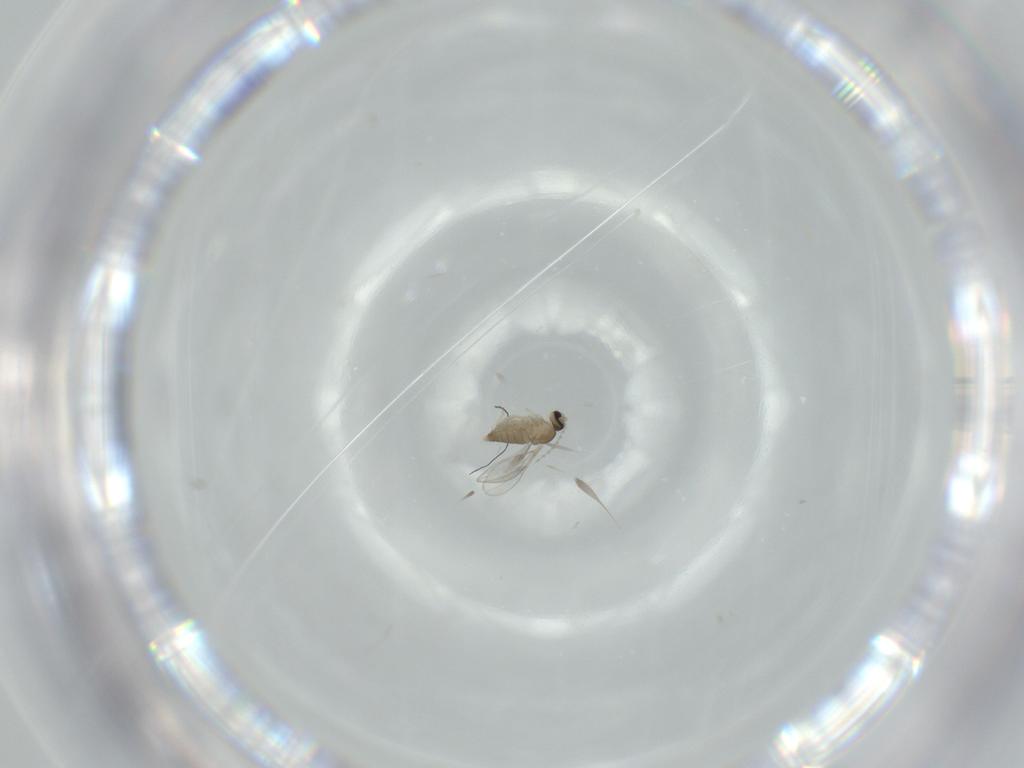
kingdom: Animalia
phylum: Arthropoda
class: Insecta
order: Diptera
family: Cecidomyiidae
